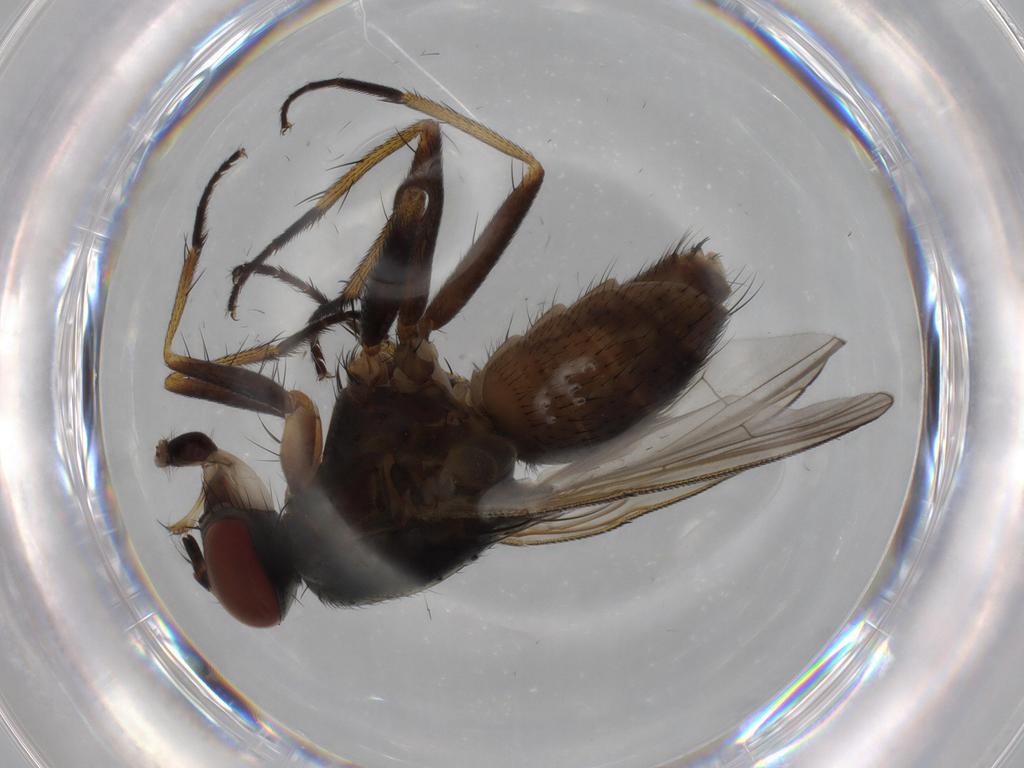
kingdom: Animalia
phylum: Arthropoda
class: Insecta
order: Diptera
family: Muscidae
